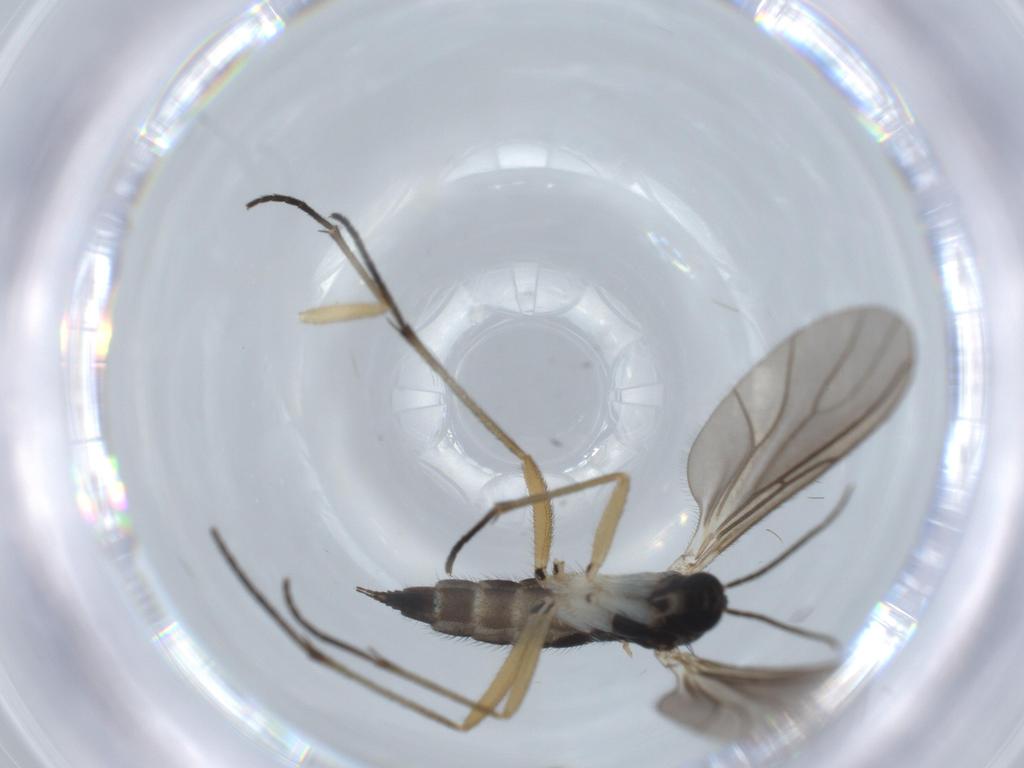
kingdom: Animalia
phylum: Arthropoda
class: Insecta
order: Diptera
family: Sciaridae
